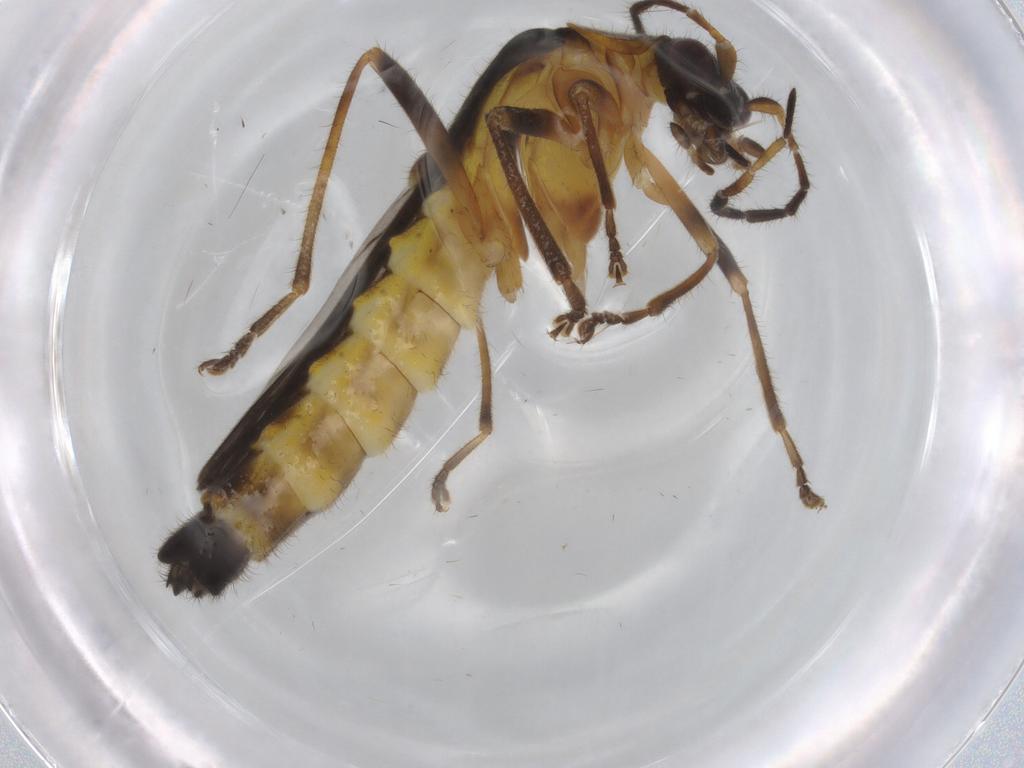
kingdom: Animalia
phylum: Arthropoda
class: Insecta
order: Coleoptera
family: Cantharidae
